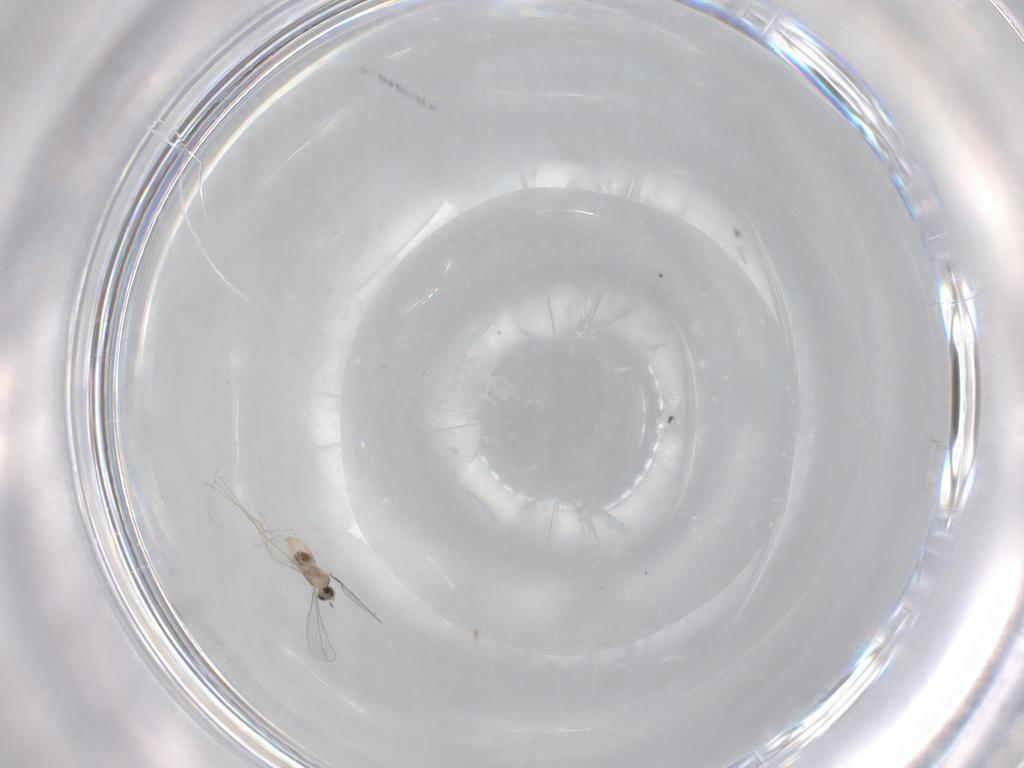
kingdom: Animalia
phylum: Arthropoda
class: Insecta
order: Diptera
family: Cecidomyiidae
